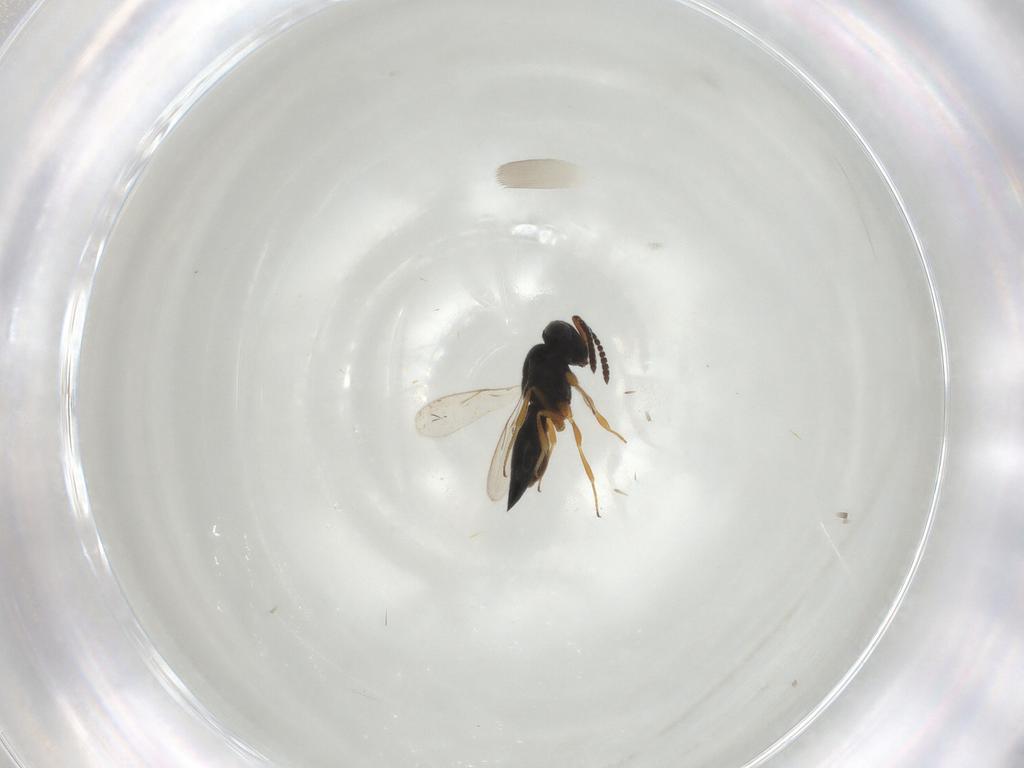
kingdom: Animalia
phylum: Arthropoda
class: Insecta
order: Hymenoptera
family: Scelionidae
